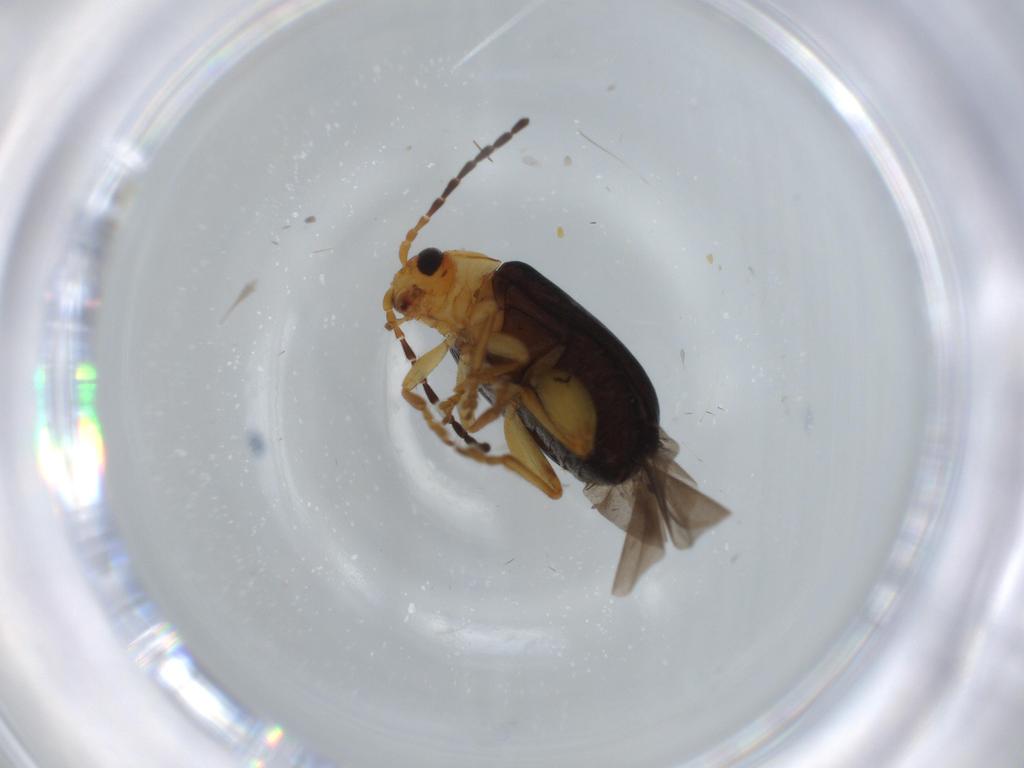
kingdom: Animalia
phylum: Arthropoda
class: Insecta
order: Coleoptera
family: Chrysomelidae
